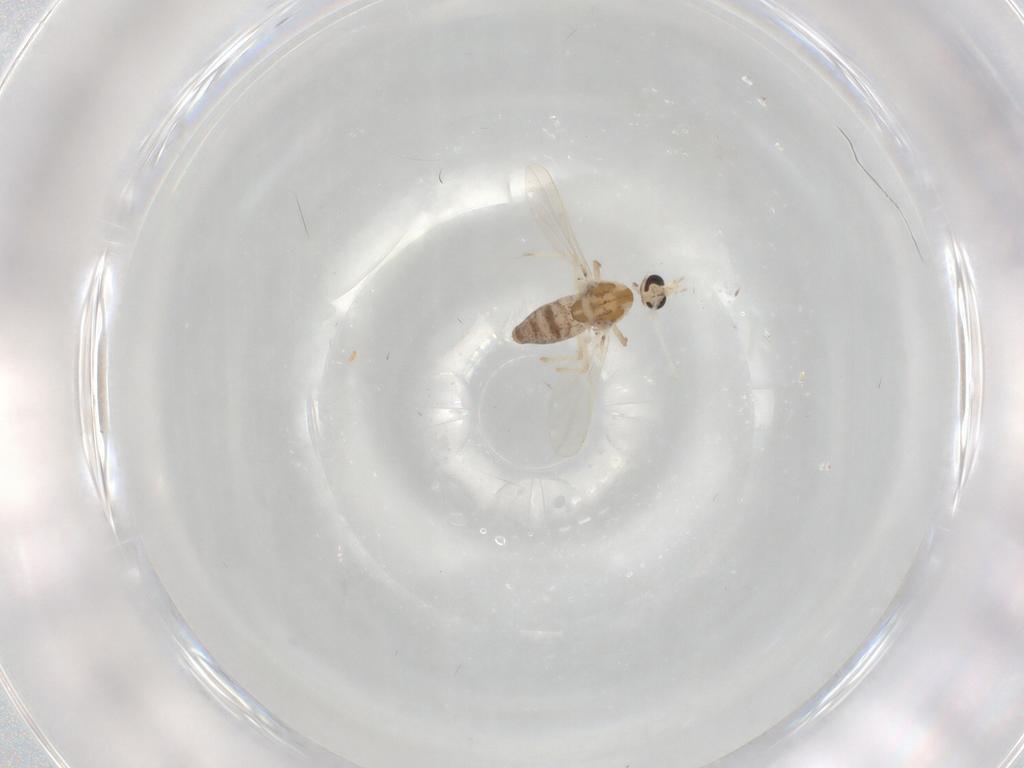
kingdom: Animalia
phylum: Arthropoda
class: Insecta
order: Diptera
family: Chironomidae
